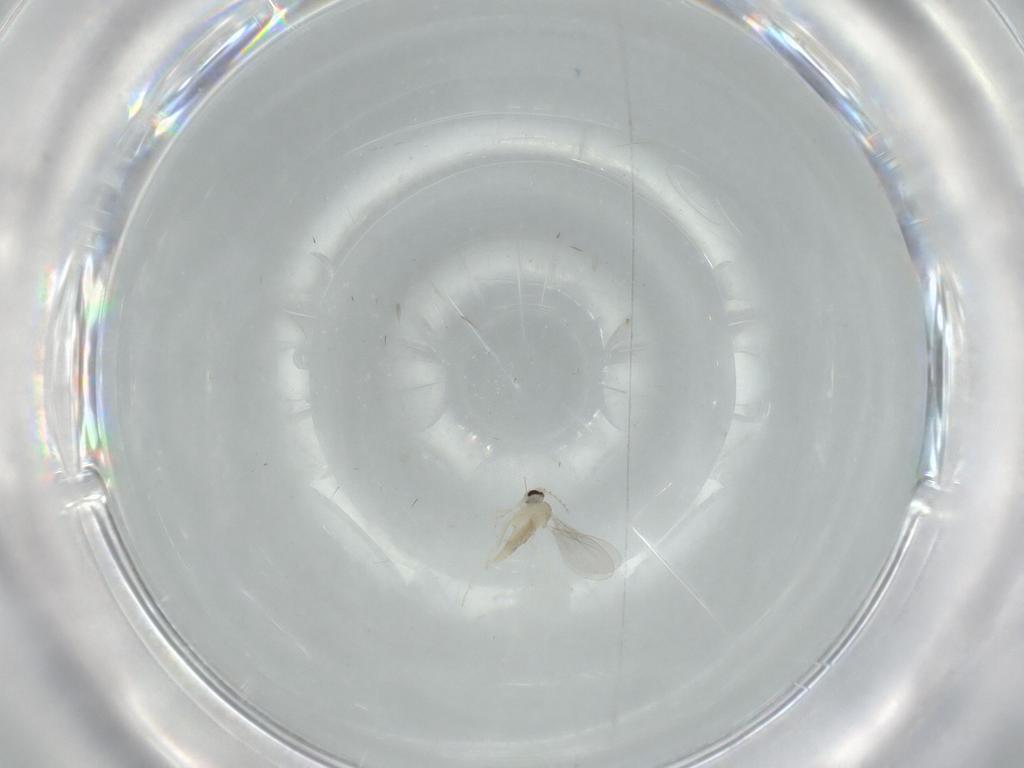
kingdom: Animalia
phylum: Arthropoda
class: Insecta
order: Diptera
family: Cecidomyiidae
